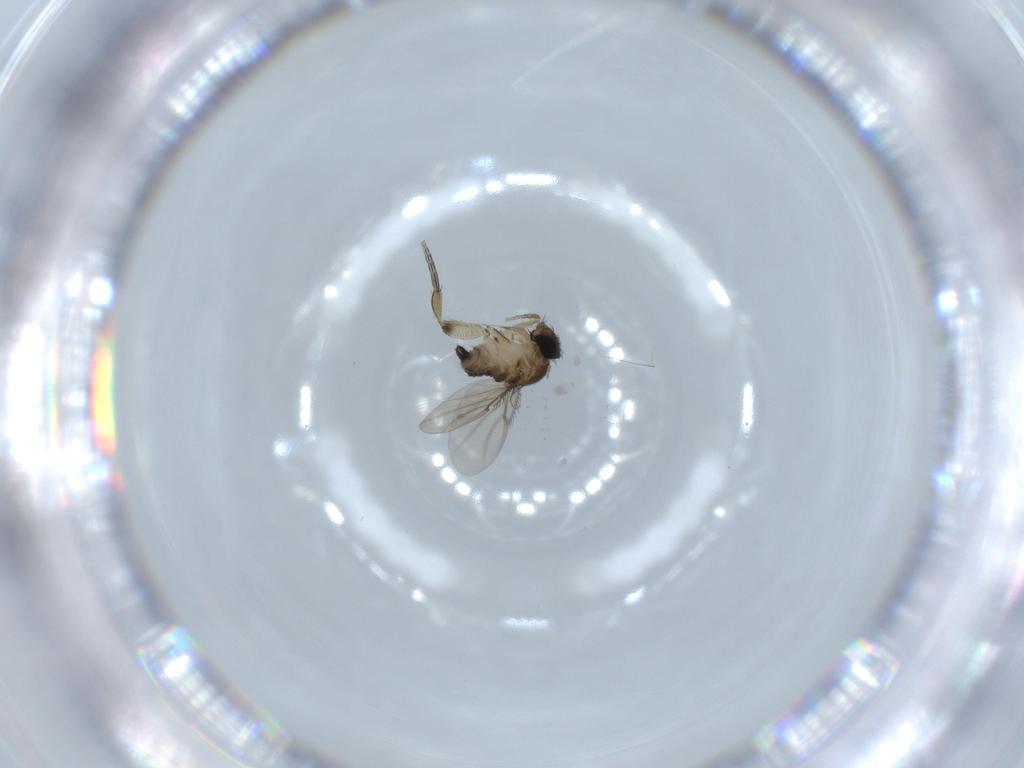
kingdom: Animalia
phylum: Arthropoda
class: Insecta
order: Diptera
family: Phoridae
